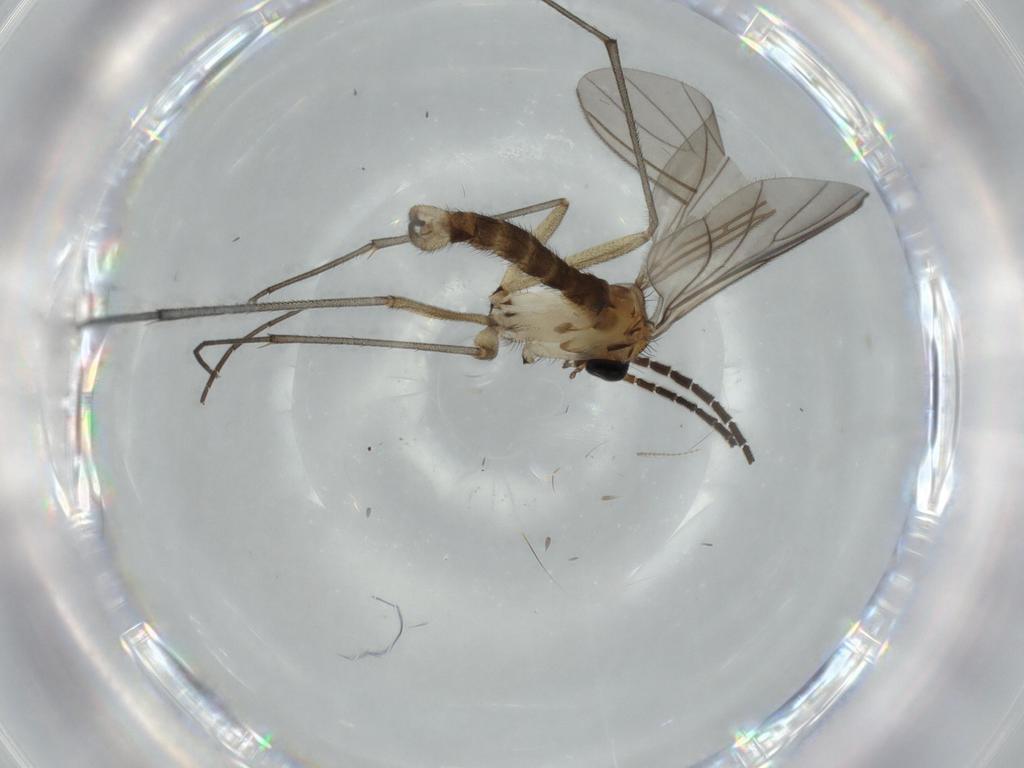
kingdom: Animalia
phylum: Arthropoda
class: Insecta
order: Diptera
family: Sciaridae
